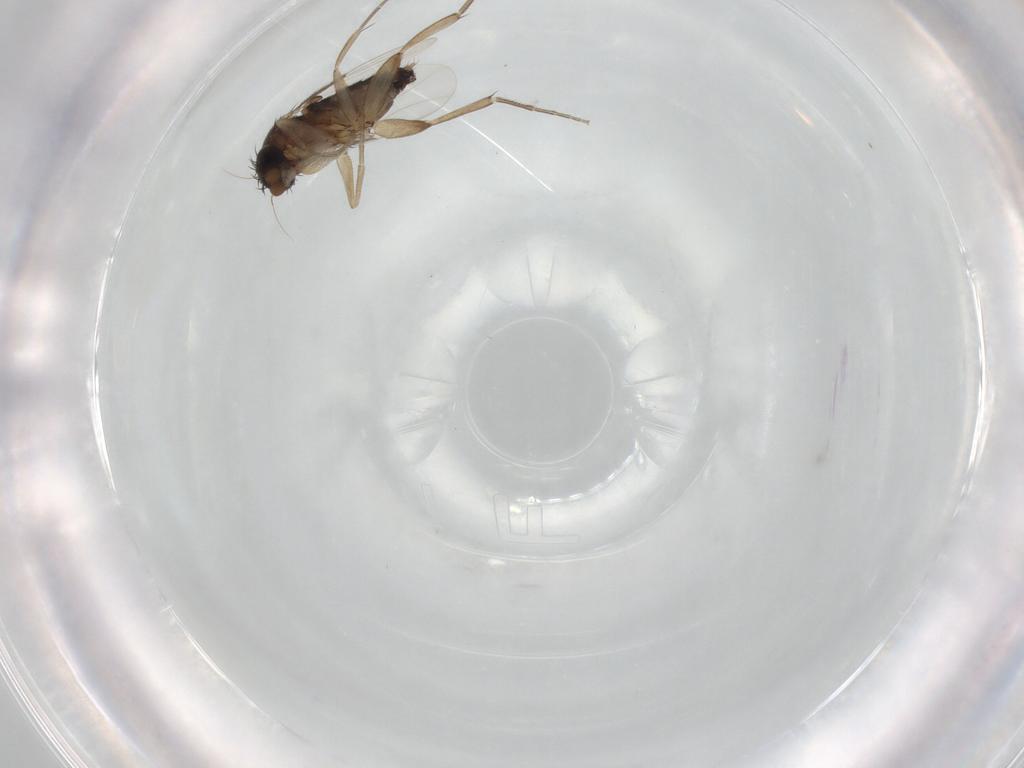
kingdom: Animalia
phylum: Arthropoda
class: Insecta
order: Diptera
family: Phoridae
